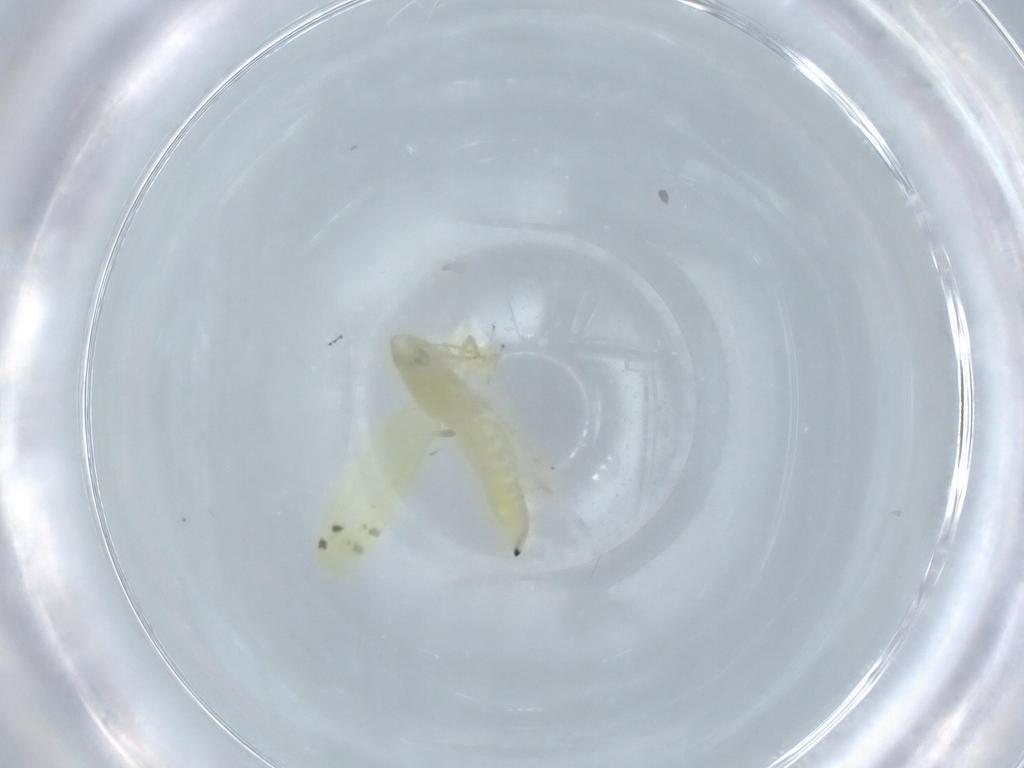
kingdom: Animalia
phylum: Arthropoda
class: Insecta
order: Hemiptera
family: Cicadellidae
